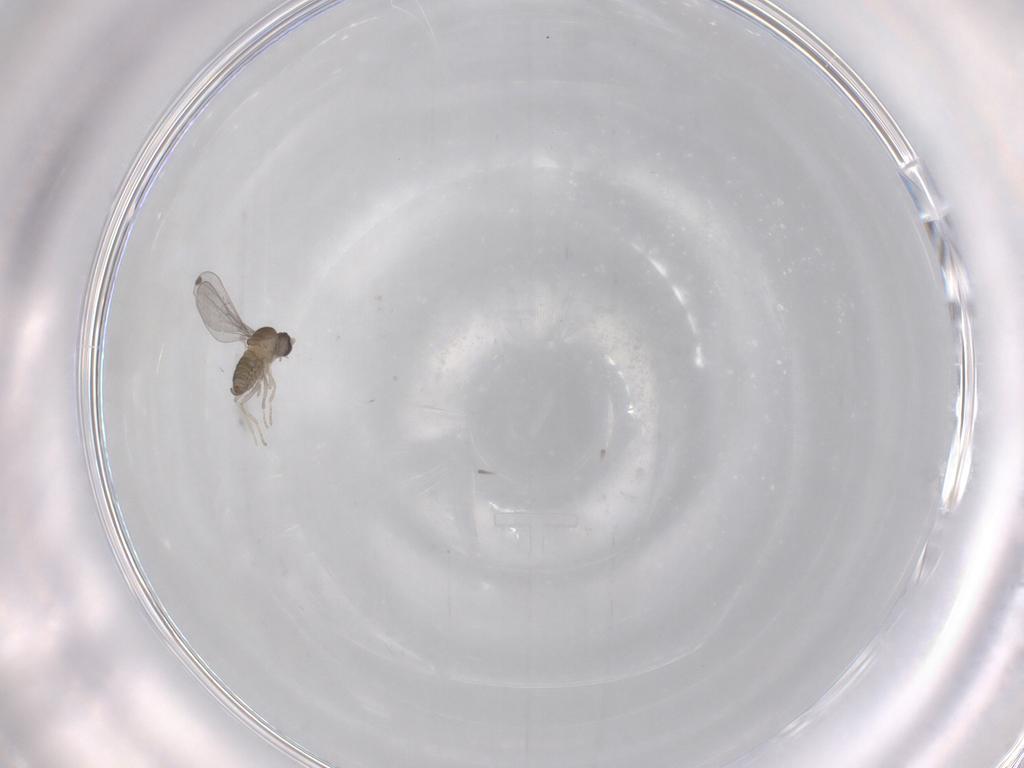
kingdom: Animalia
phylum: Arthropoda
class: Insecta
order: Diptera
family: Cecidomyiidae
